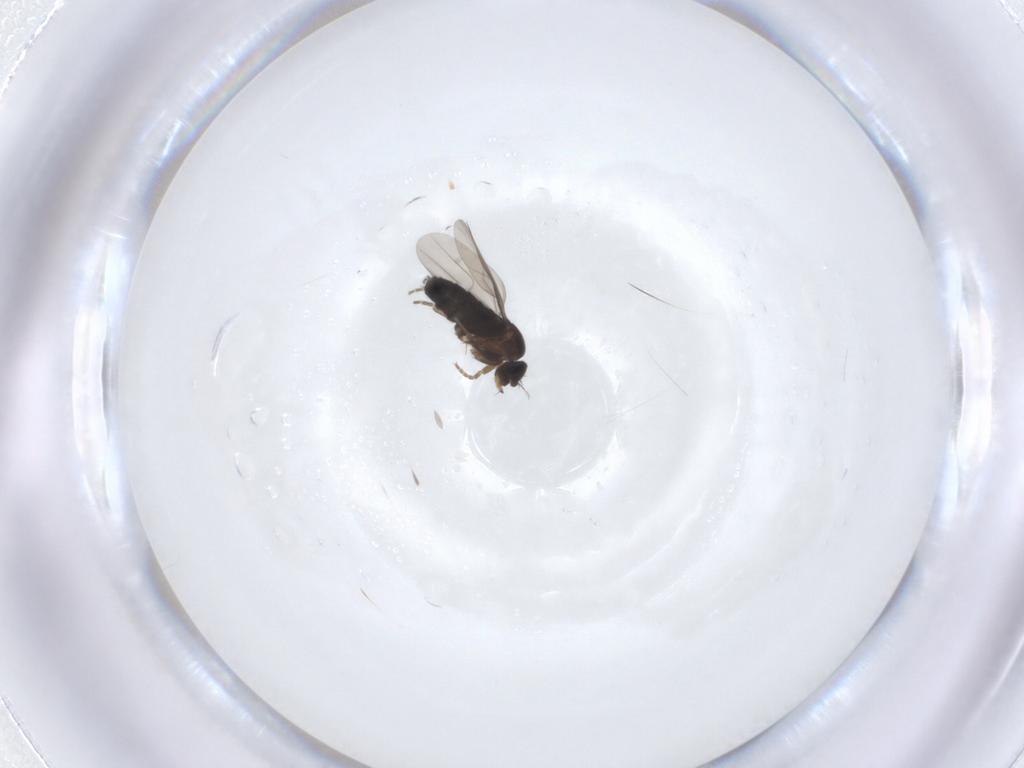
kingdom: Animalia
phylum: Arthropoda
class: Insecta
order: Diptera
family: Phoridae
